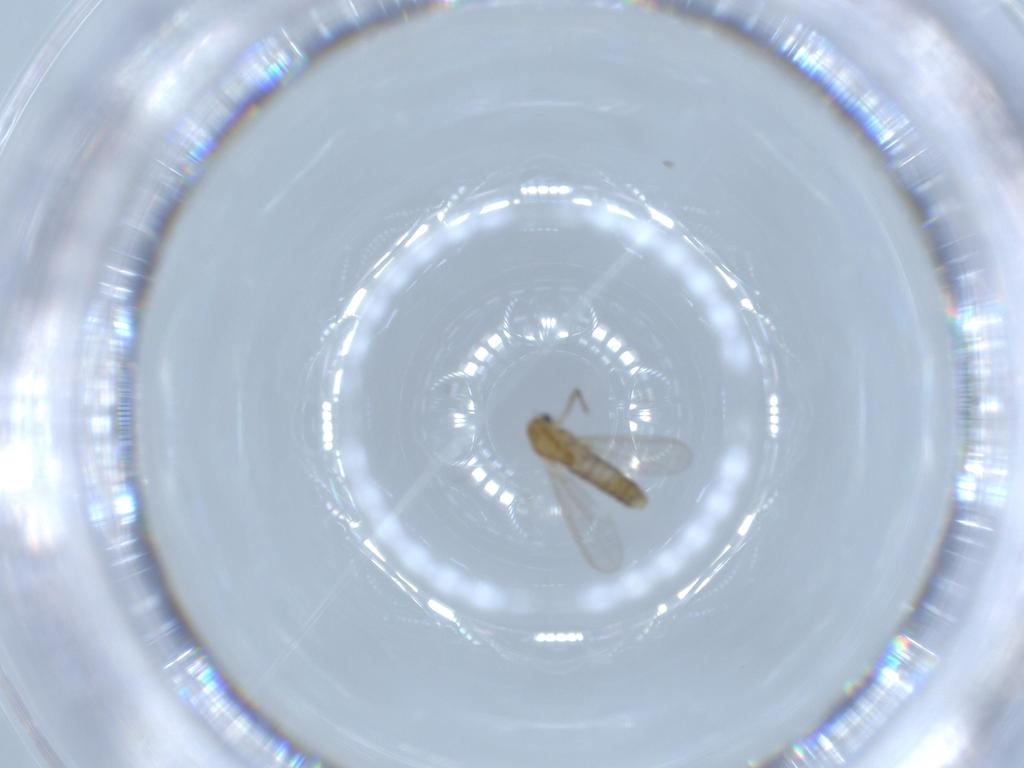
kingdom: Animalia
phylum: Arthropoda
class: Insecta
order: Diptera
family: Chironomidae
